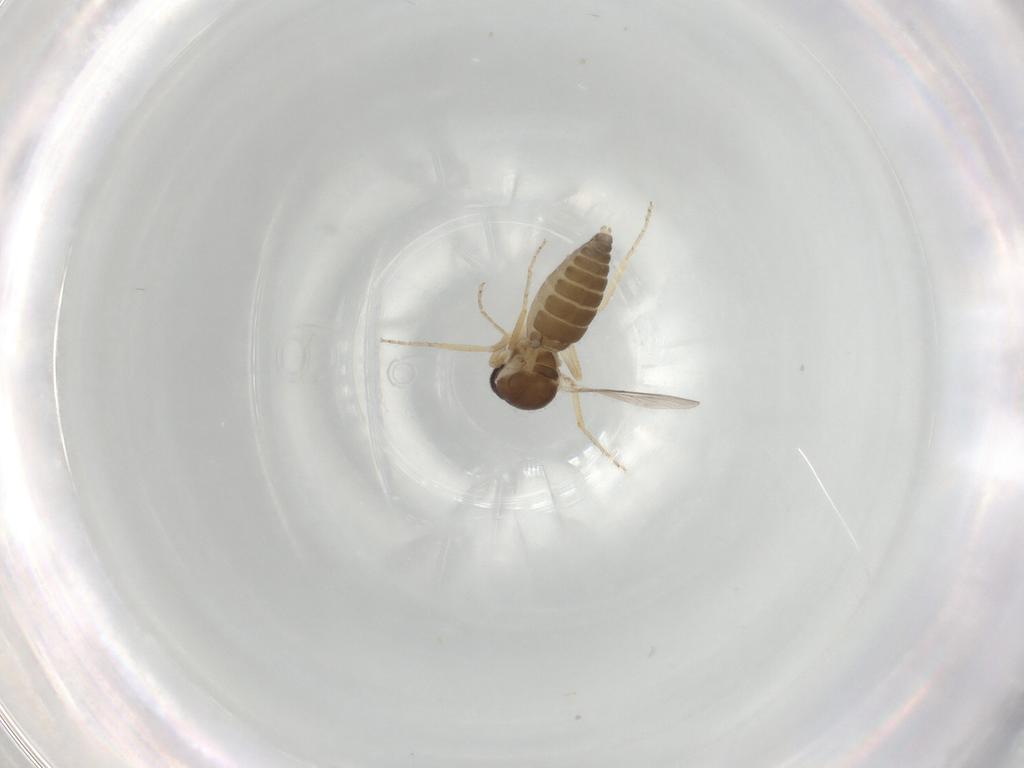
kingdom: Animalia
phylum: Arthropoda
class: Insecta
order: Diptera
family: Ceratopogonidae
